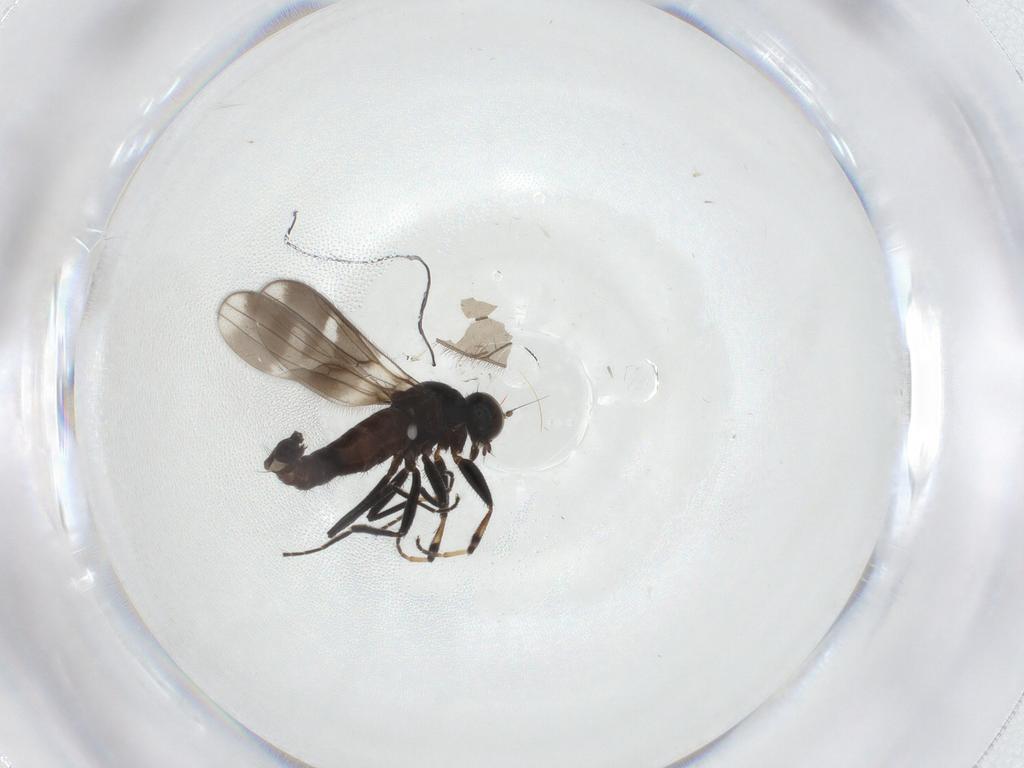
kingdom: Animalia
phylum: Arthropoda
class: Insecta
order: Diptera
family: Hybotidae
